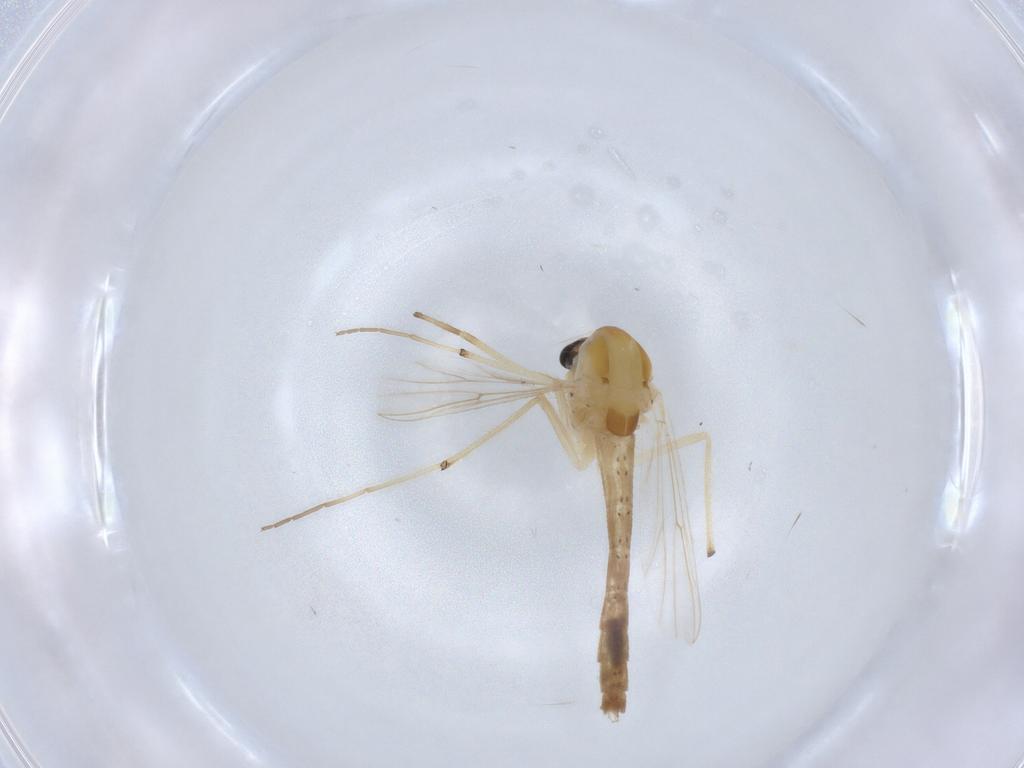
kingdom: Animalia
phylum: Arthropoda
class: Insecta
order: Diptera
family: Chironomidae
